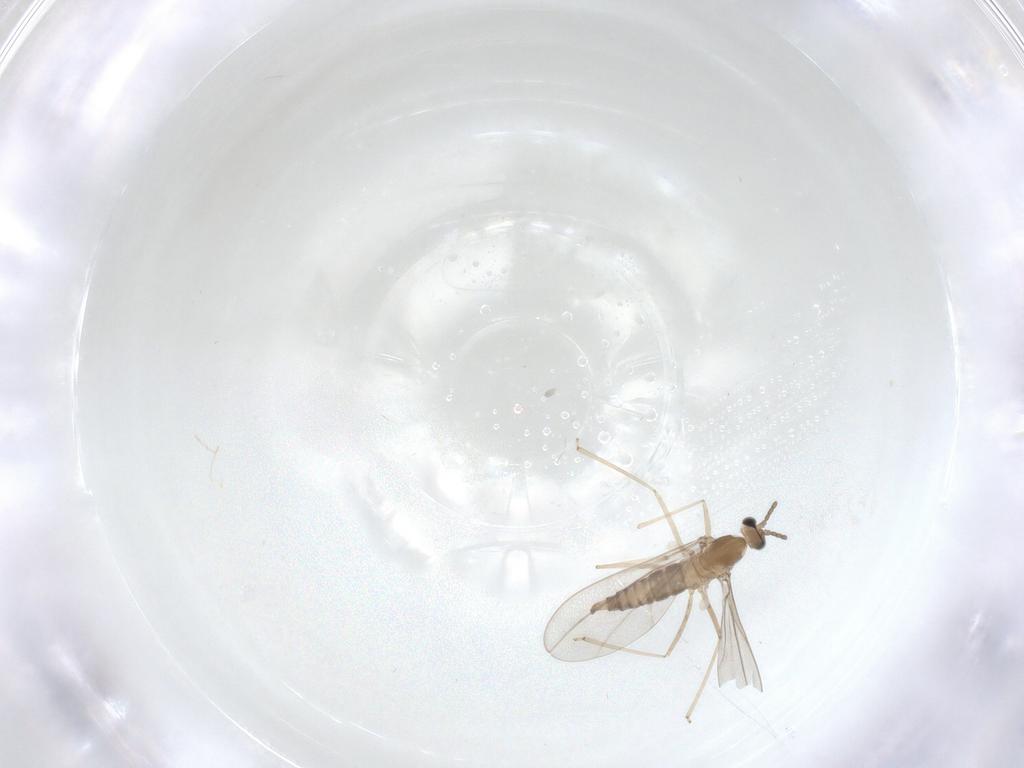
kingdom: Animalia
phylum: Arthropoda
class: Insecta
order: Diptera
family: Cecidomyiidae
